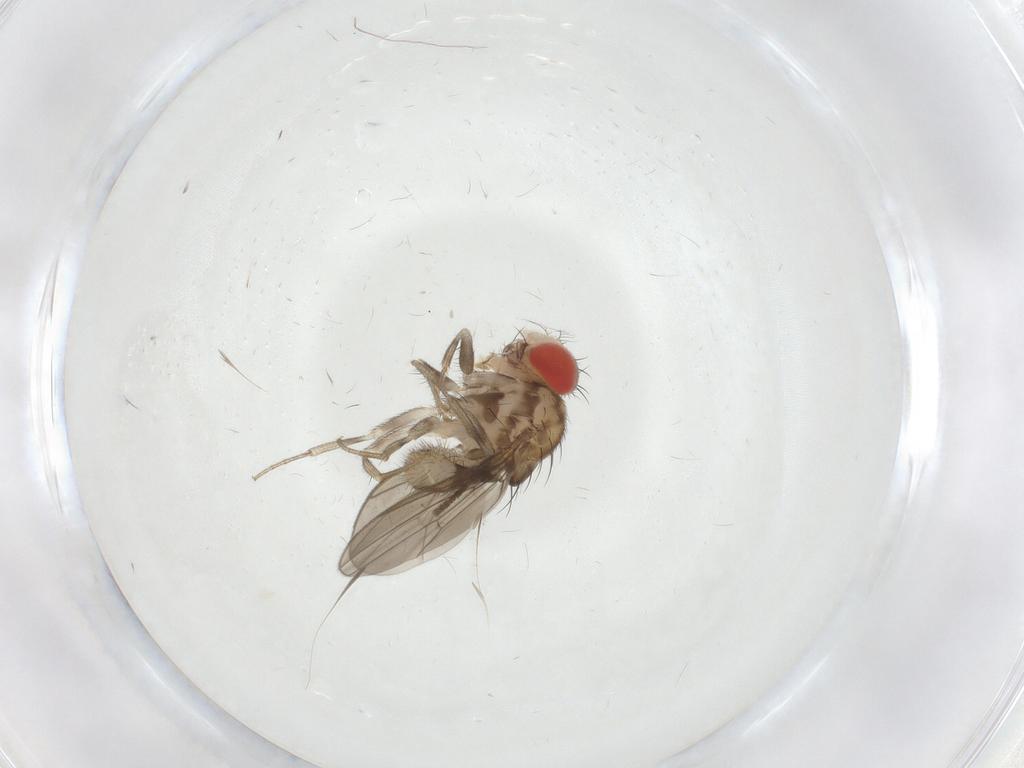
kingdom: Animalia
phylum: Arthropoda
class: Insecta
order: Diptera
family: Drosophilidae
